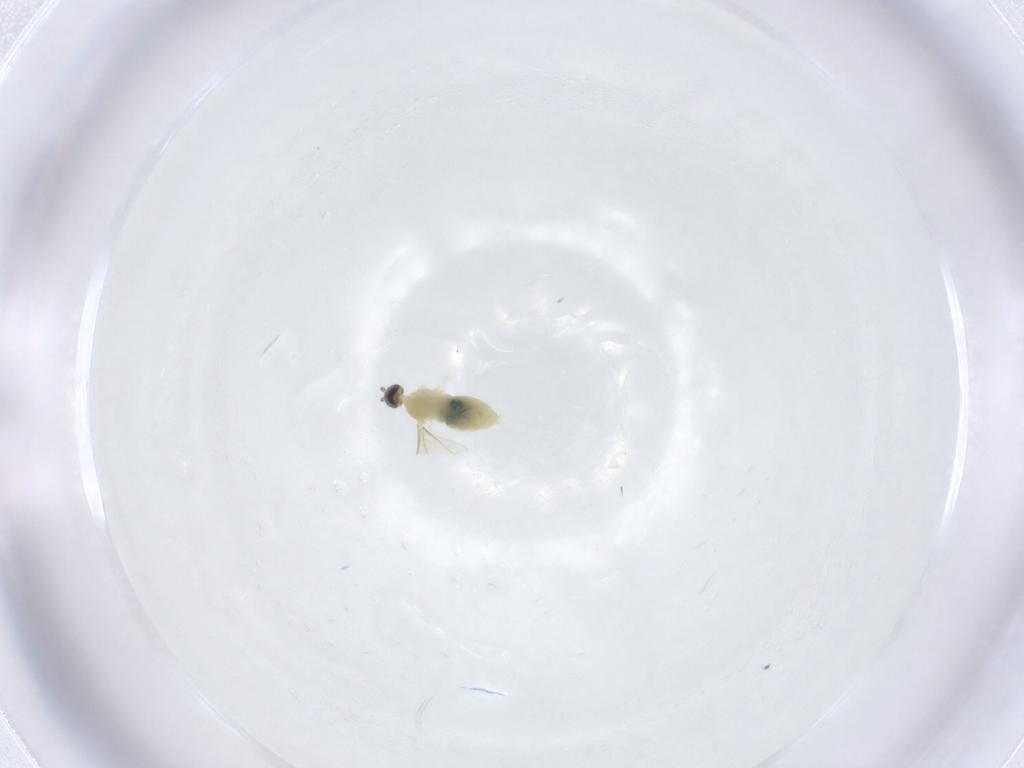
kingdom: Animalia
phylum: Arthropoda
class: Insecta
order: Diptera
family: Cecidomyiidae
